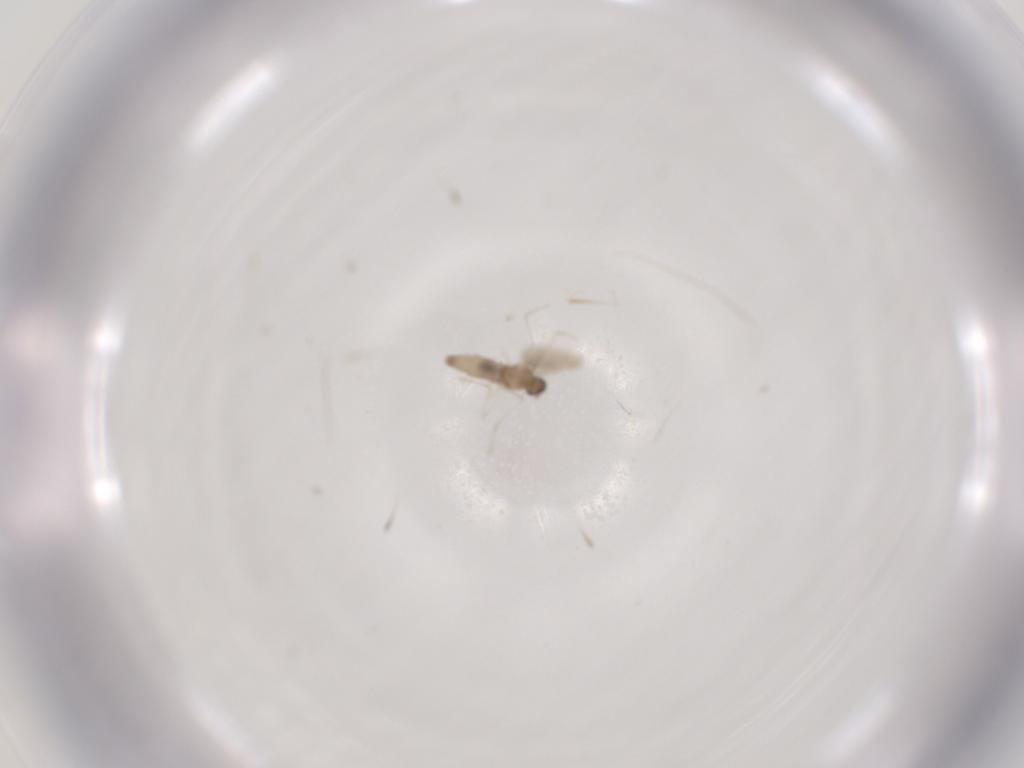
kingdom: Animalia
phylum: Arthropoda
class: Insecta
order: Diptera
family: Cecidomyiidae
